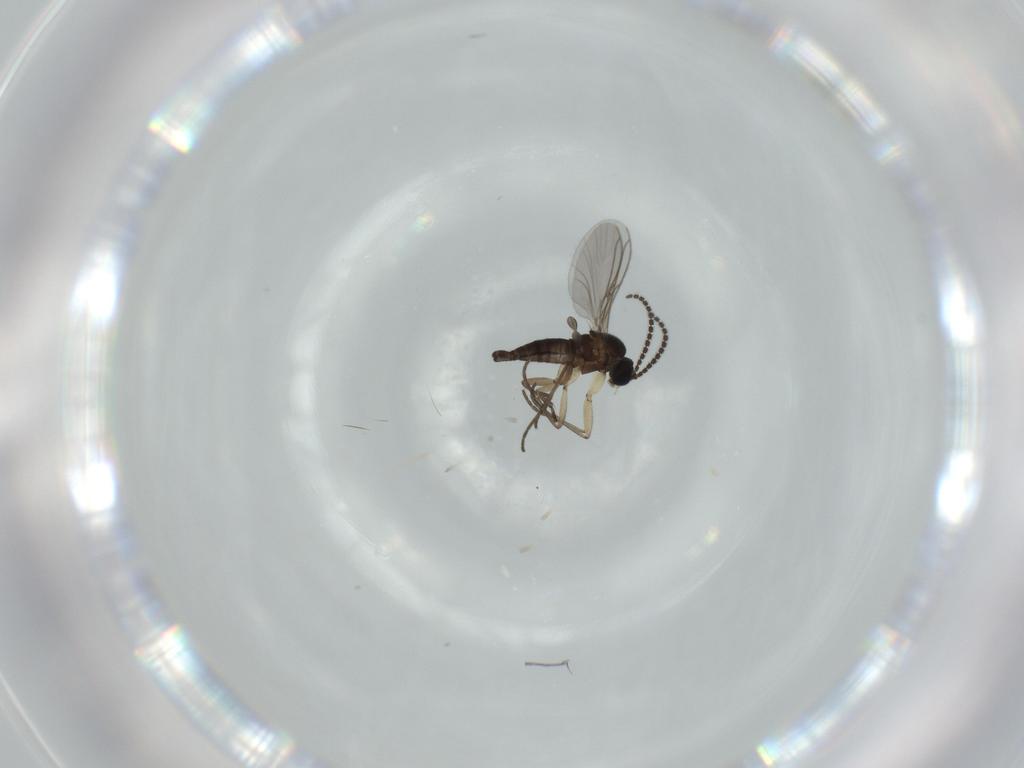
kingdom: Animalia
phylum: Arthropoda
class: Insecta
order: Diptera
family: Sciaridae
